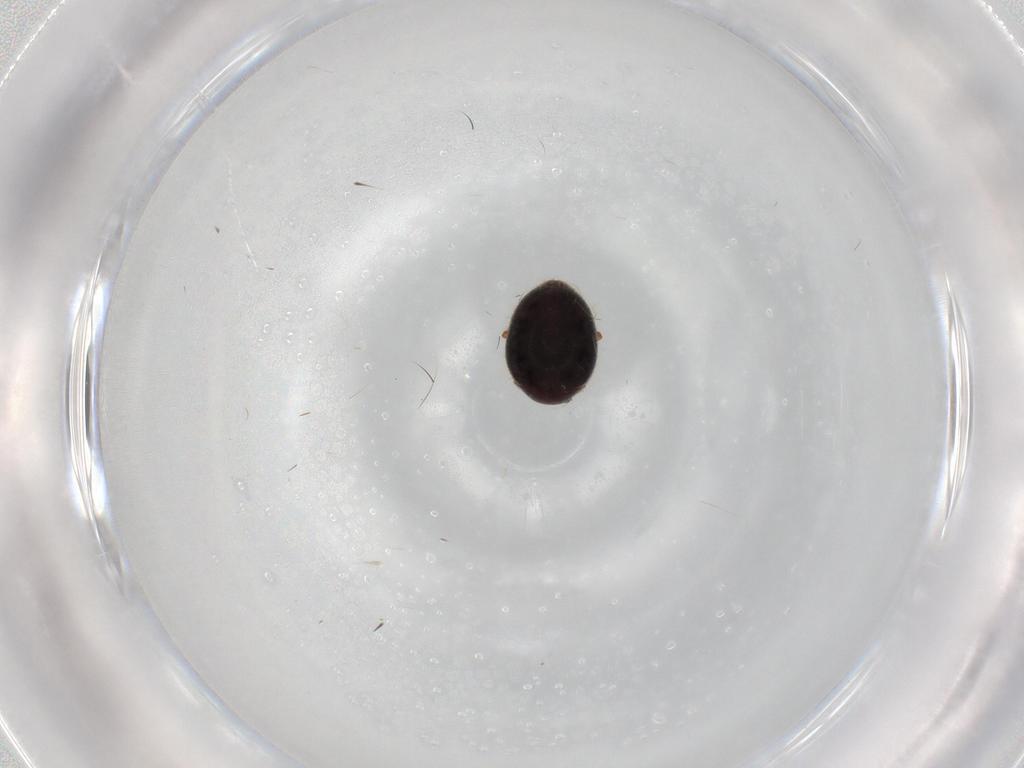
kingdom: Animalia
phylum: Arthropoda
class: Insecta
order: Coleoptera
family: Coccinellidae
